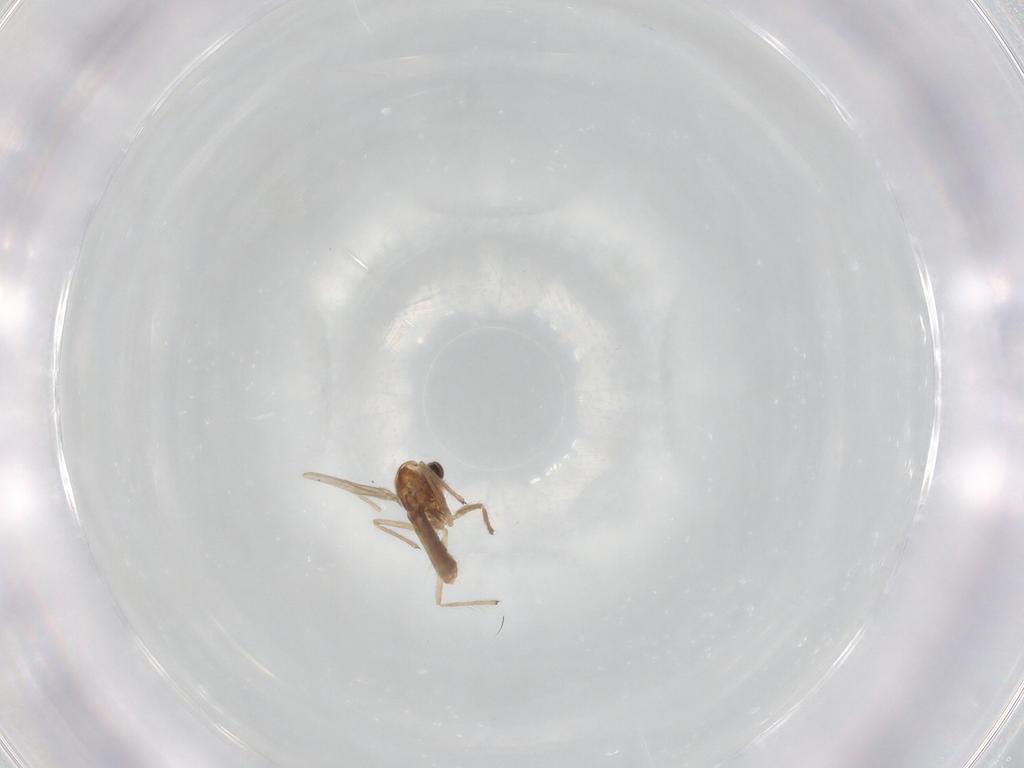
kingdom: Animalia
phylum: Arthropoda
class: Insecta
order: Diptera
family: Chironomidae
